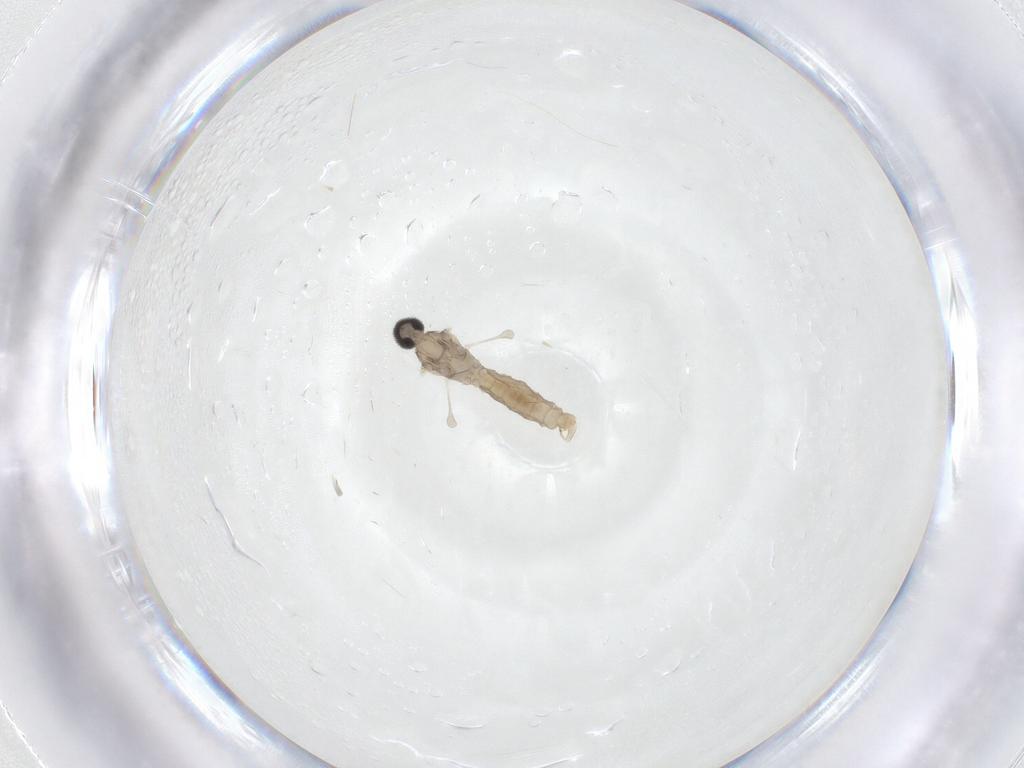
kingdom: Animalia
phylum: Arthropoda
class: Insecta
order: Diptera
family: Cecidomyiidae
